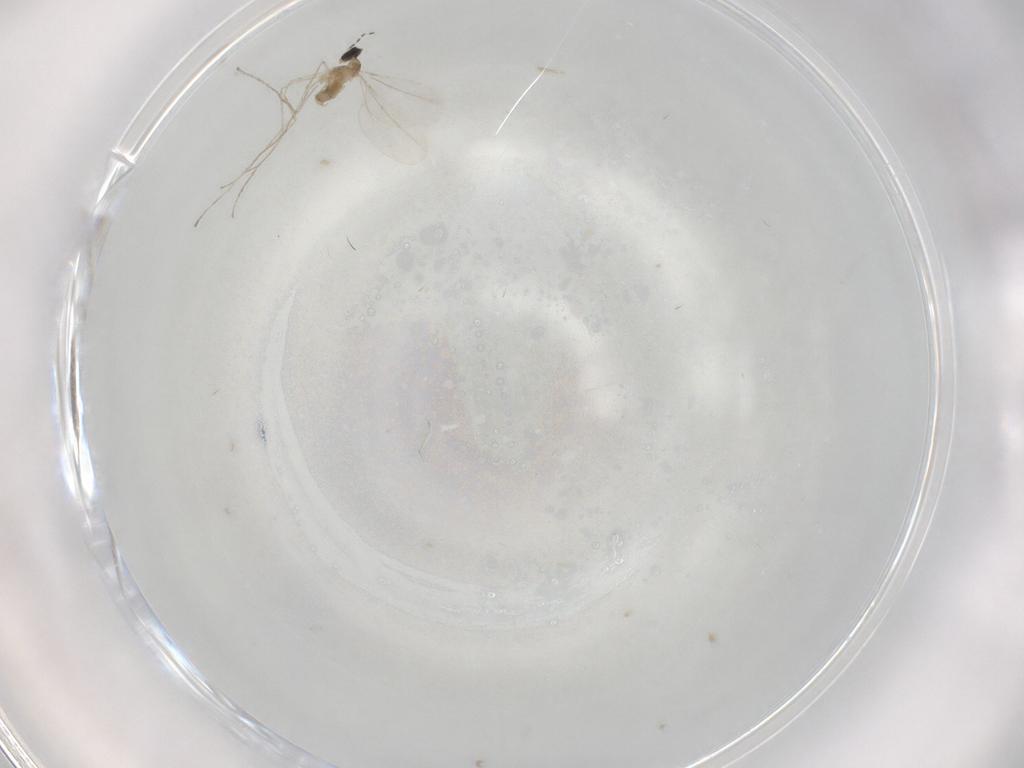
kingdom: Animalia
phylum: Arthropoda
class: Insecta
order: Diptera
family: Cecidomyiidae
